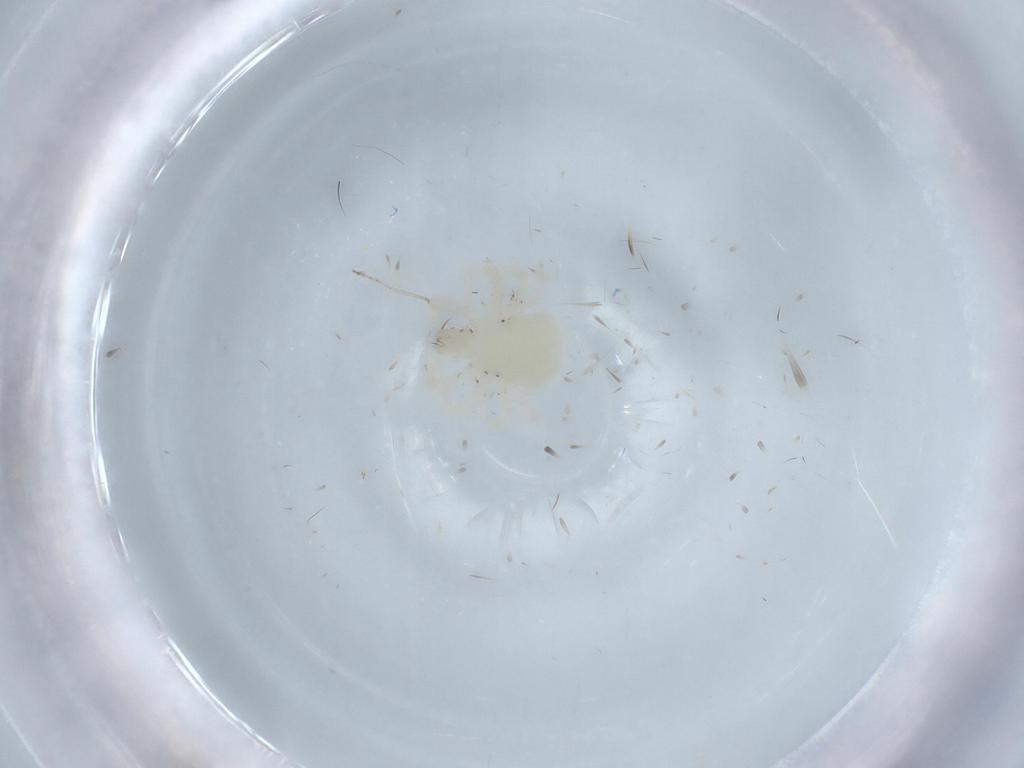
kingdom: Animalia
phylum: Arthropoda
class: Arachnida
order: Trombidiformes
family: Anystidae
